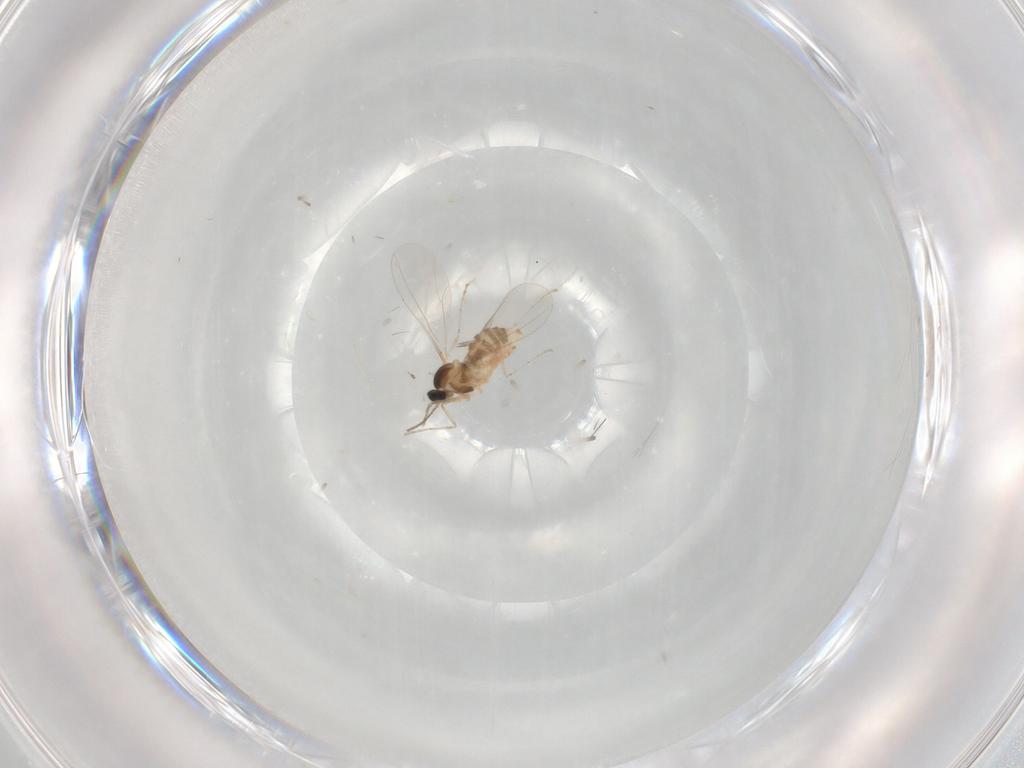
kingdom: Animalia
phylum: Arthropoda
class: Insecta
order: Diptera
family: Cecidomyiidae
